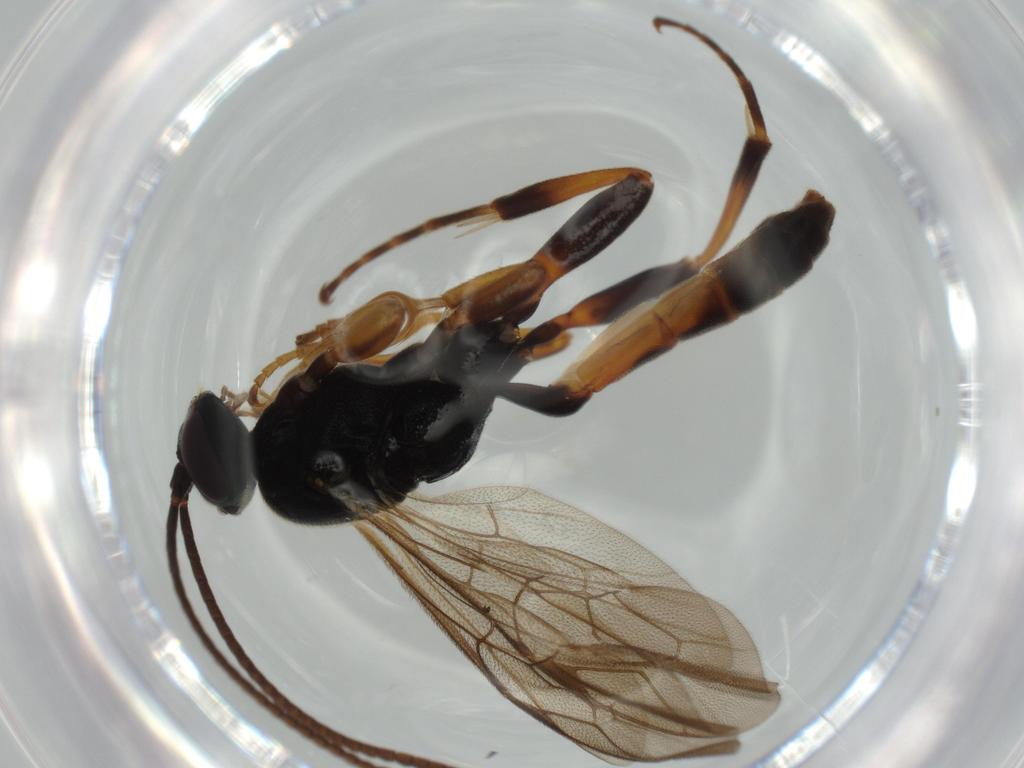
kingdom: Animalia
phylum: Arthropoda
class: Insecta
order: Hymenoptera
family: Ichneumonidae
